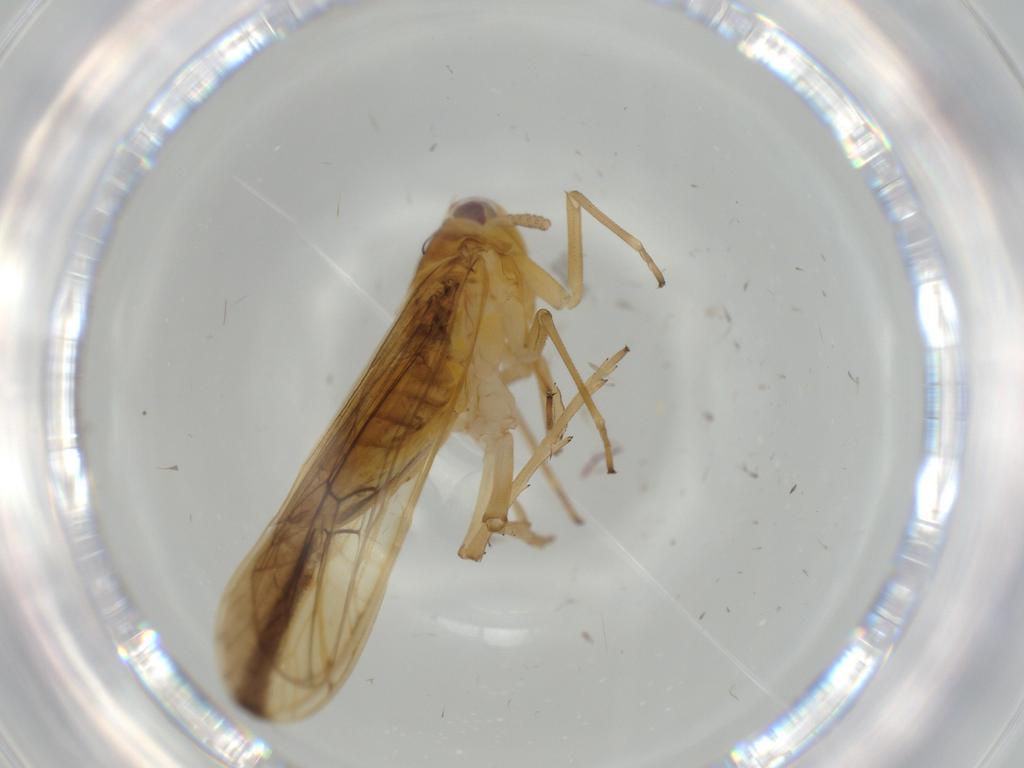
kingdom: Animalia
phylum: Arthropoda
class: Insecta
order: Hemiptera
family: Delphacidae
